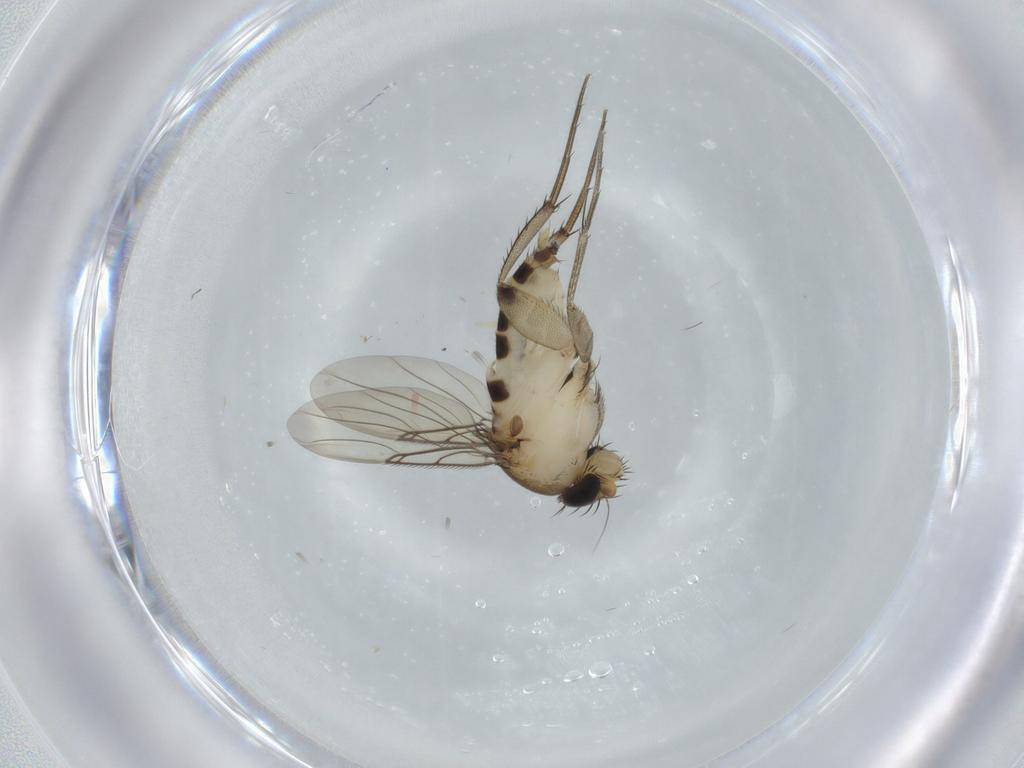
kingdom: Animalia
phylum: Arthropoda
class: Insecta
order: Diptera
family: Phoridae
